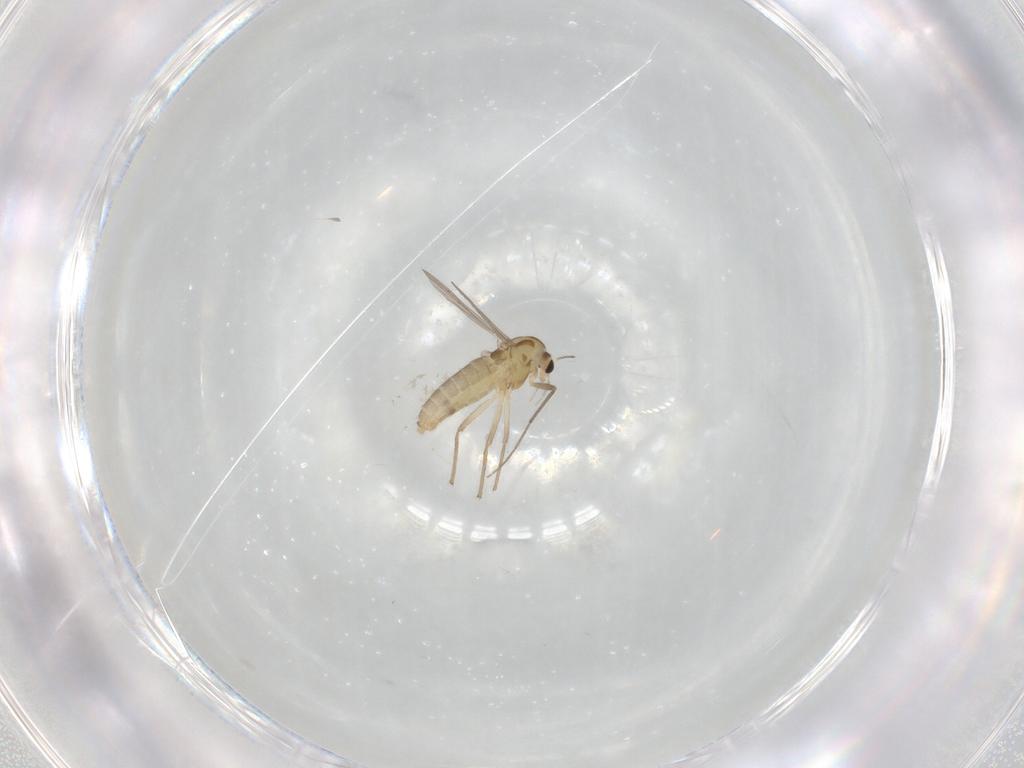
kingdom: Animalia
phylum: Arthropoda
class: Insecta
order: Diptera
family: Chironomidae
